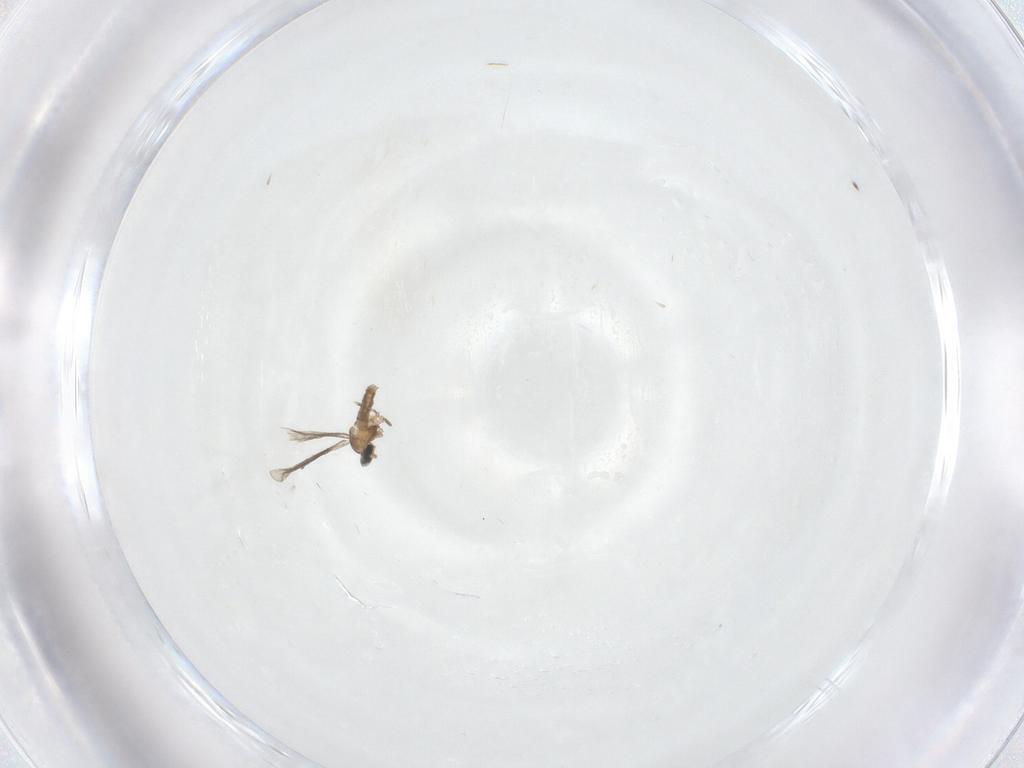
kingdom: Animalia
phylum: Arthropoda
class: Insecta
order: Diptera
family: Cecidomyiidae
